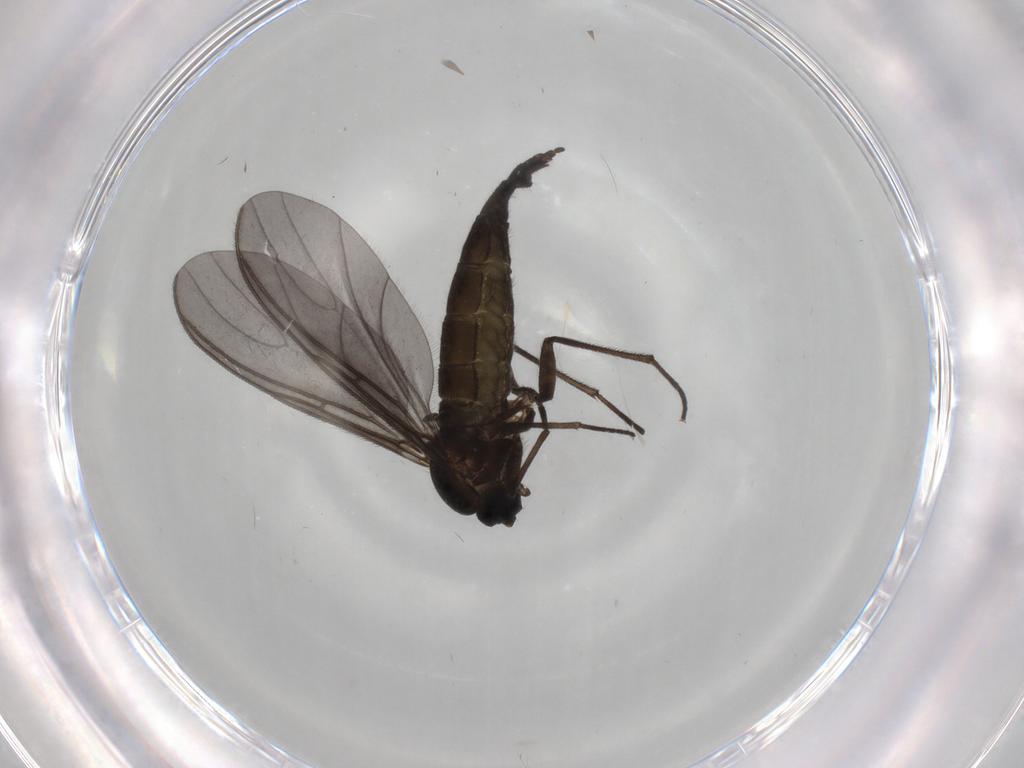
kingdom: Animalia
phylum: Arthropoda
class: Insecta
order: Diptera
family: Sciaridae
